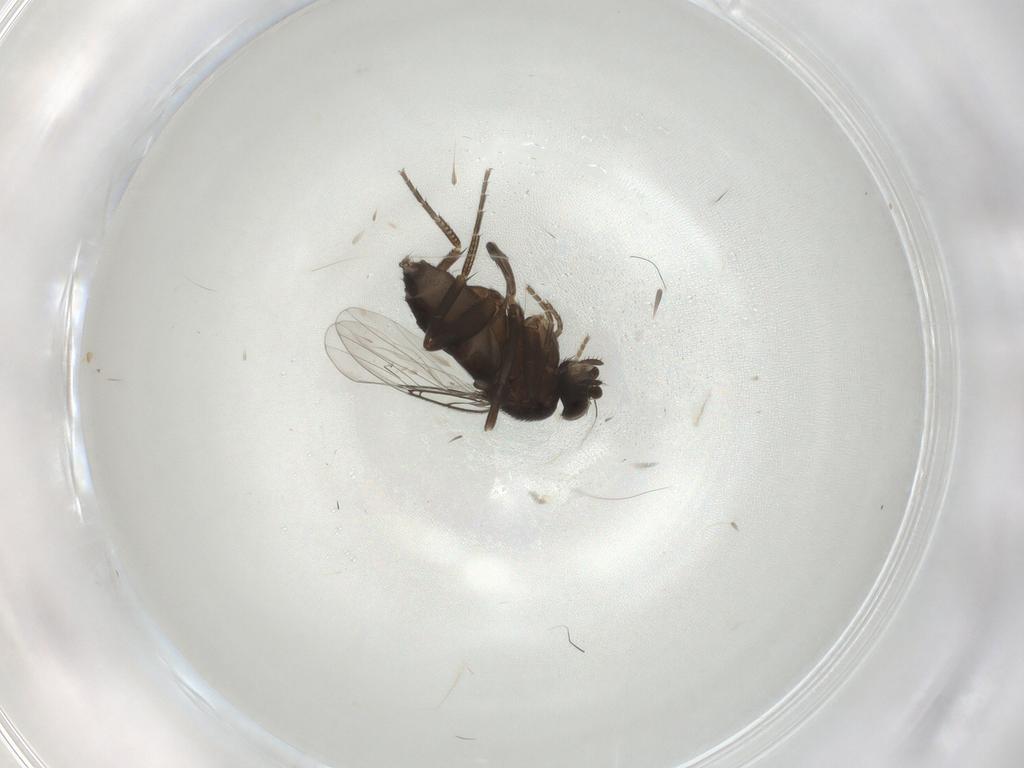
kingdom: Animalia
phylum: Arthropoda
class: Insecta
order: Diptera
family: Phoridae
